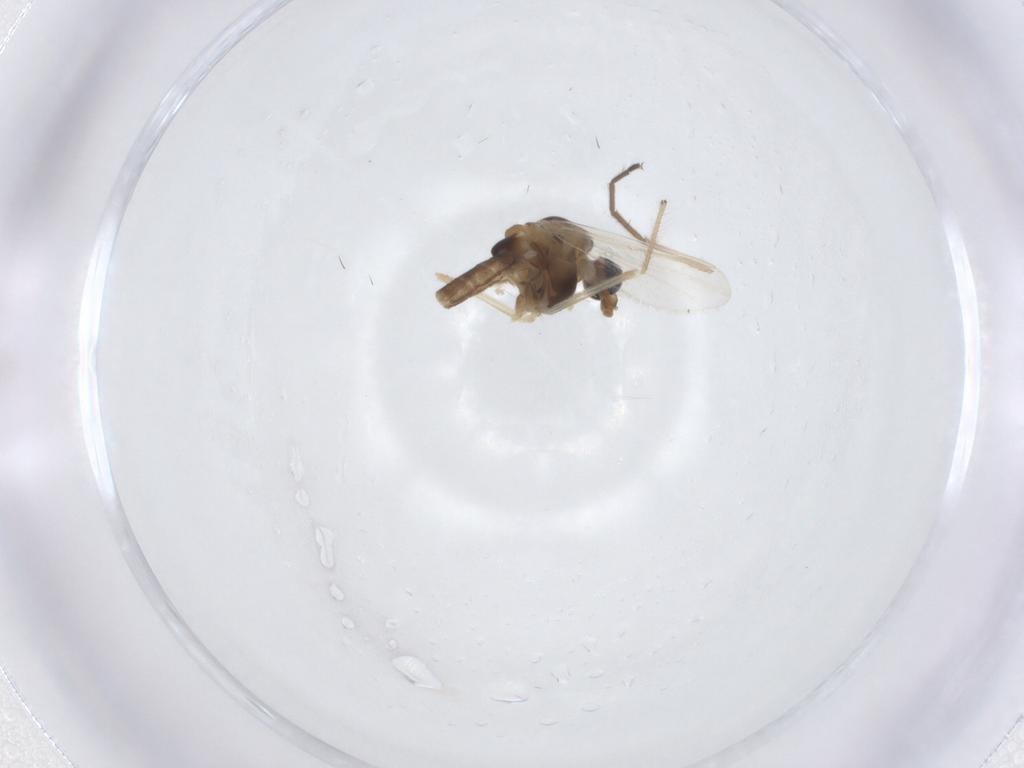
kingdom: Animalia
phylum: Arthropoda
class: Insecta
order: Diptera
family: Chironomidae
